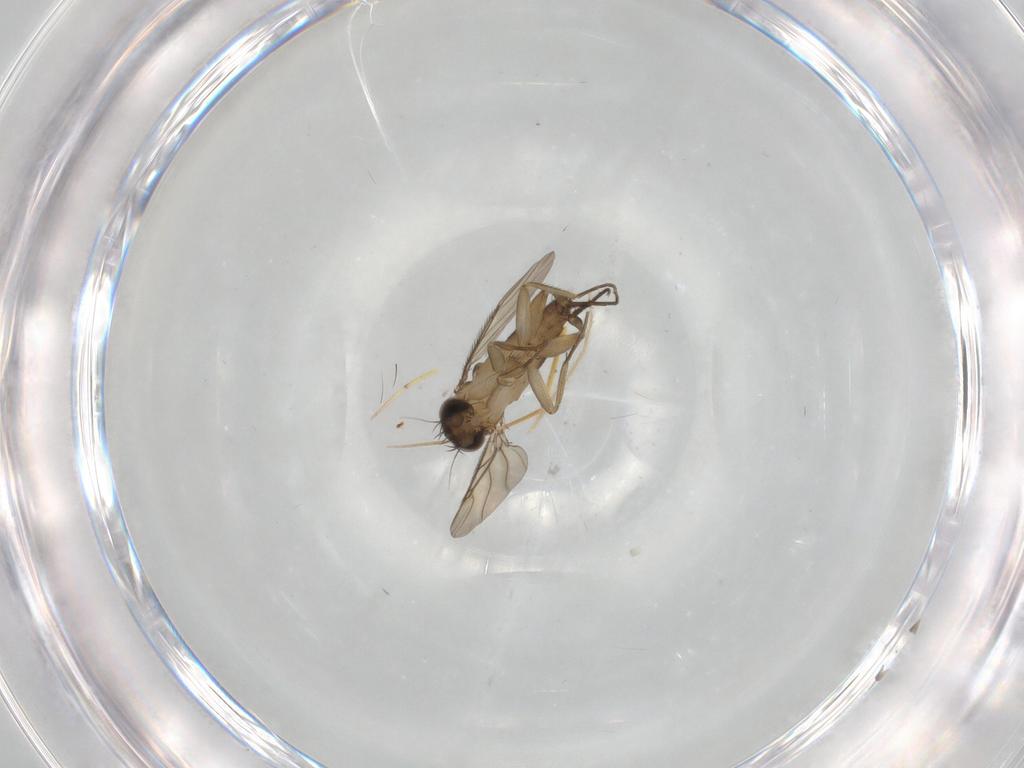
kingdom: Animalia
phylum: Arthropoda
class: Insecta
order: Diptera
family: Phoridae
